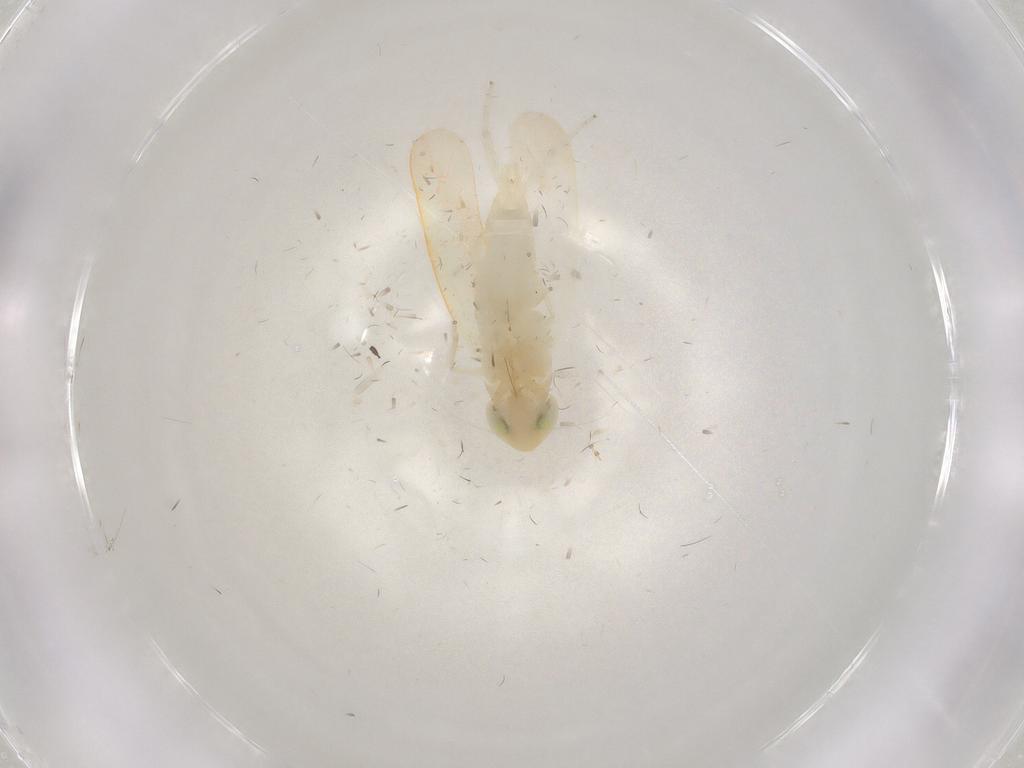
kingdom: Animalia
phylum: Arthropoda
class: Insecta
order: Hemiptera
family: Cicadellidae
